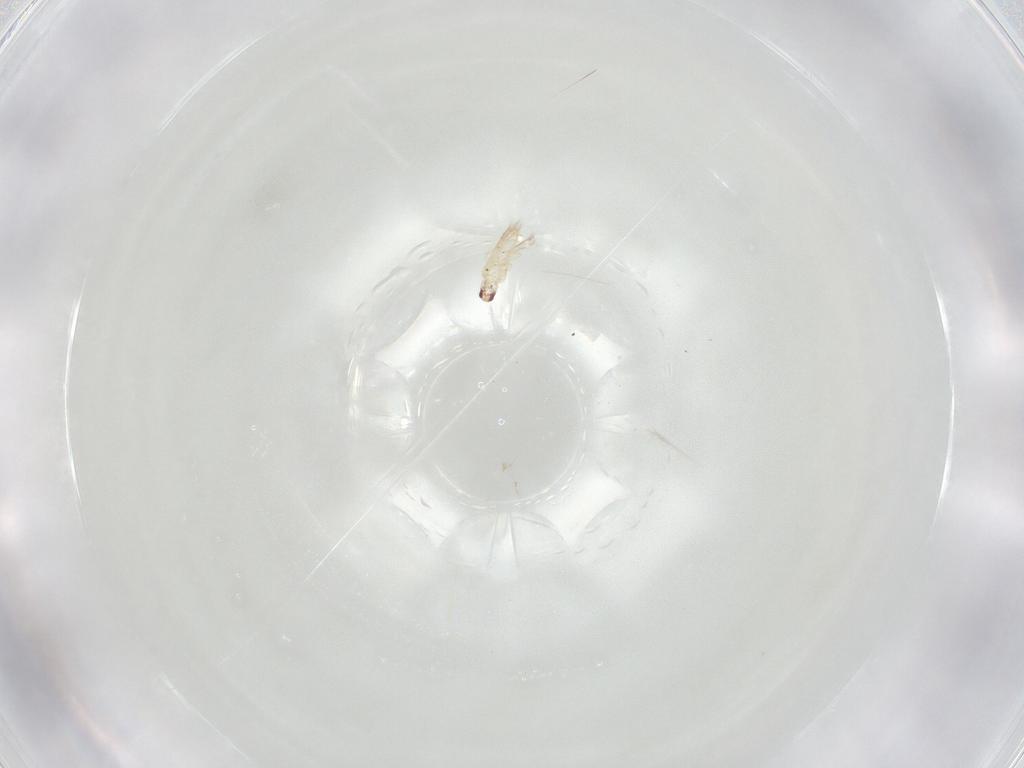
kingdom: Animalia
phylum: Arthropoda
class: Insecta
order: Hemiptera
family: Aleyrodidae
